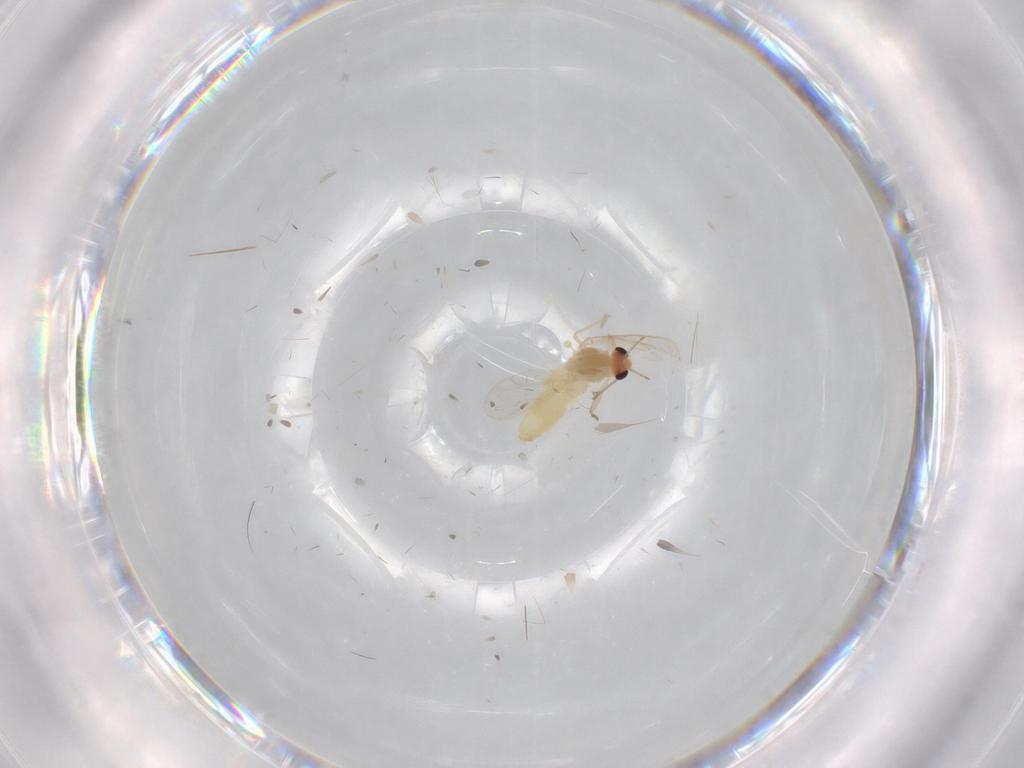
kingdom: Animalia
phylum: Arthropoda
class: Insecta
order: Diptera
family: Chironomidae
